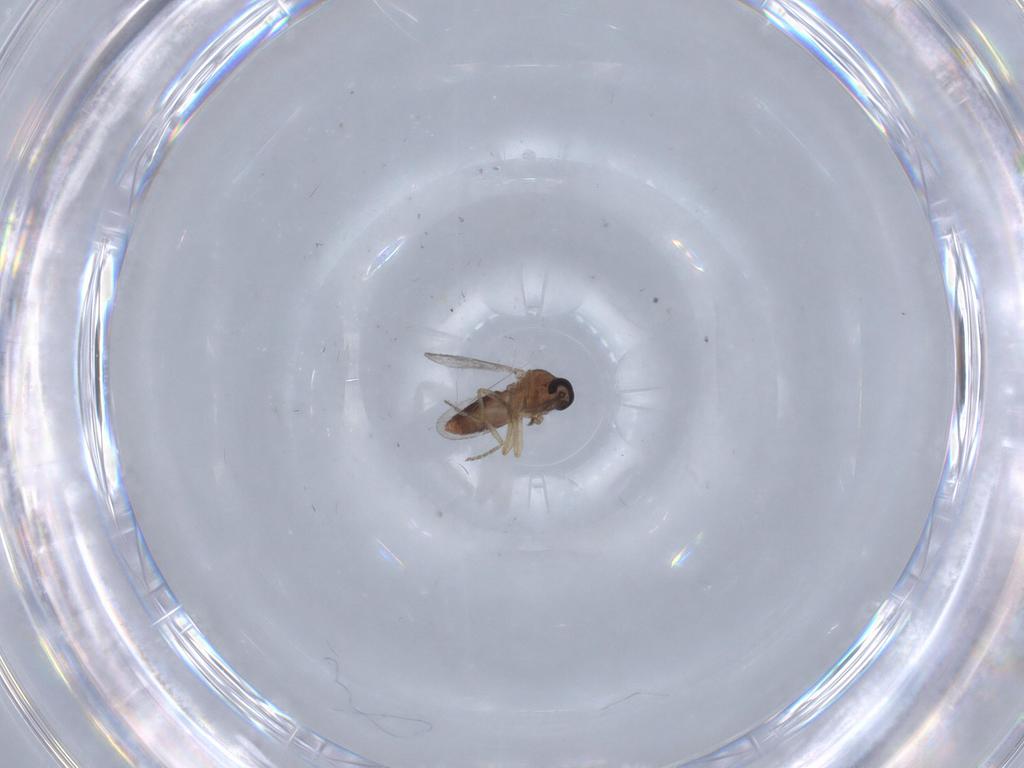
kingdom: Animalia
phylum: Arthropoda
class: Insecta
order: Diptera
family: Ceratopogonidae
